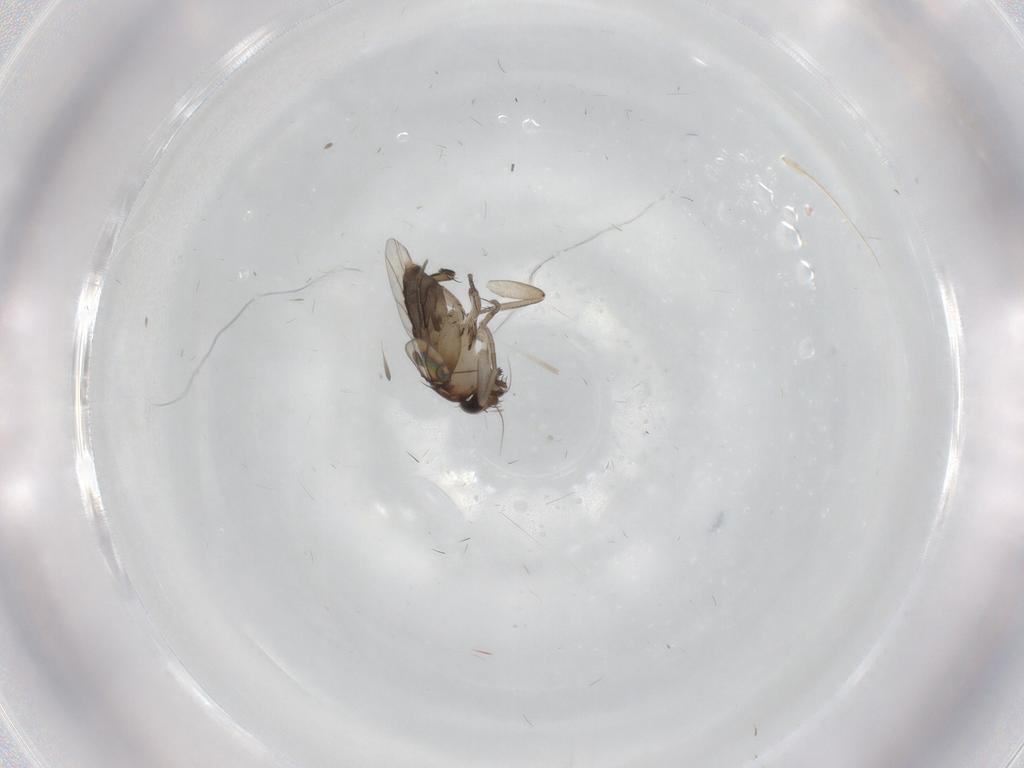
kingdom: Animalia
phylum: Arthropoda
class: Insecta
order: Diptera
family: Phoridae
